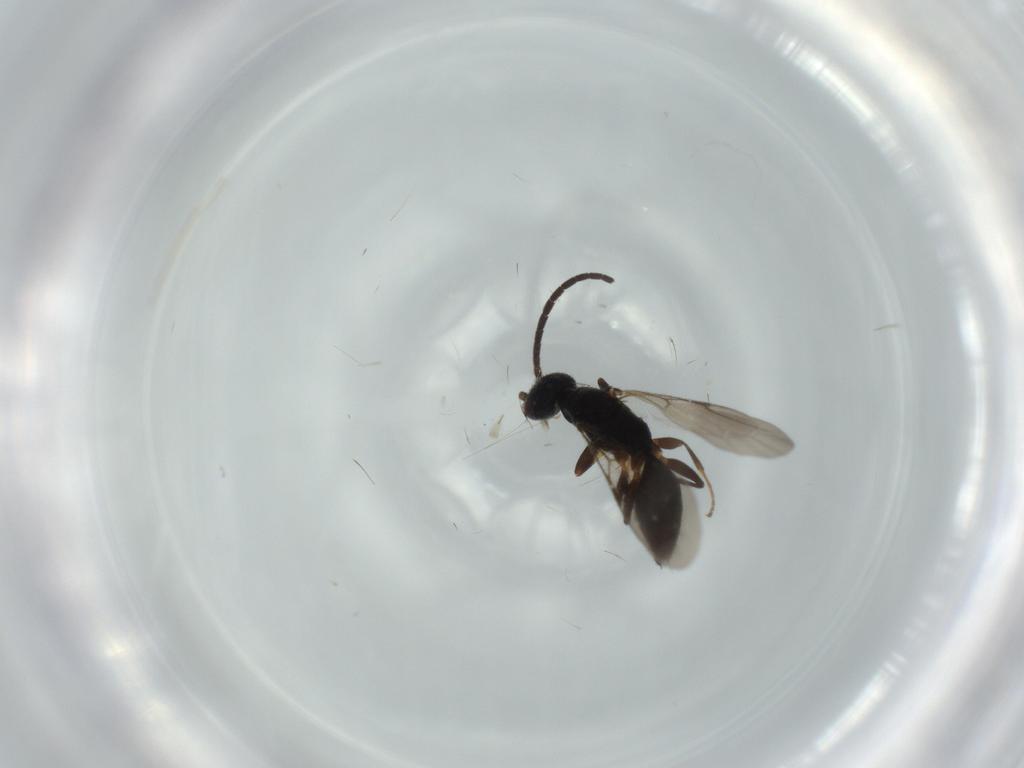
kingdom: Animalia
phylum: Arthropoda
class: Insecta
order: Hymenoptera
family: Bethylidae
